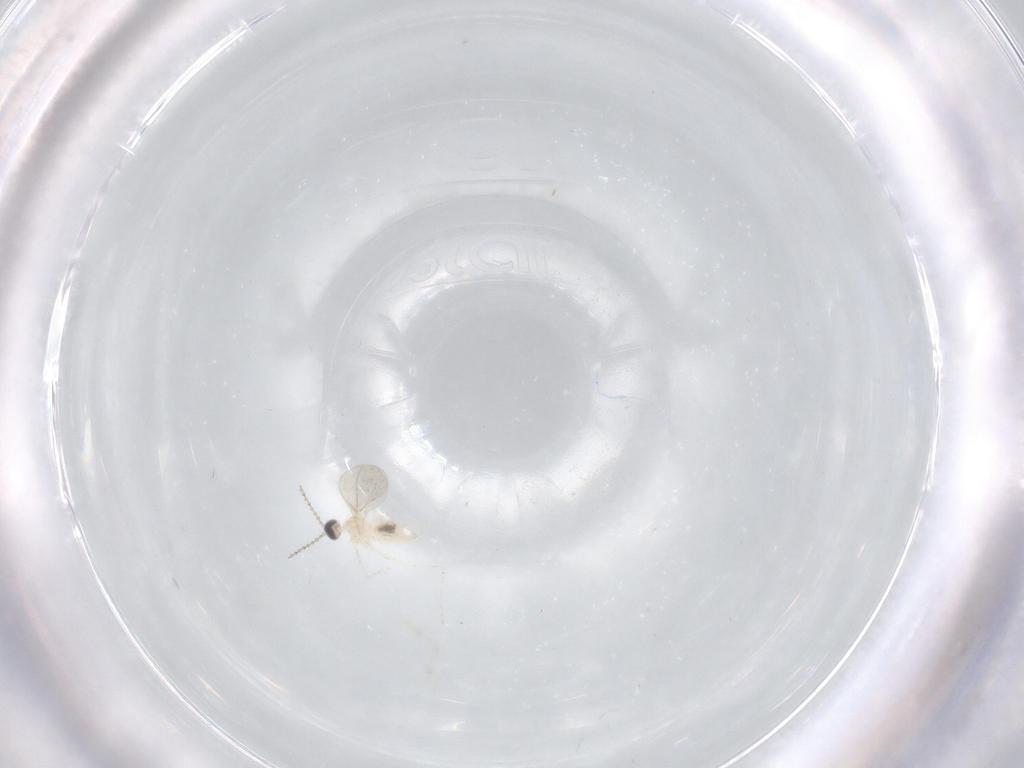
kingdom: Animalia
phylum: Arthropoda
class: Insecta
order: Diptera
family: Cecidomyiidae
